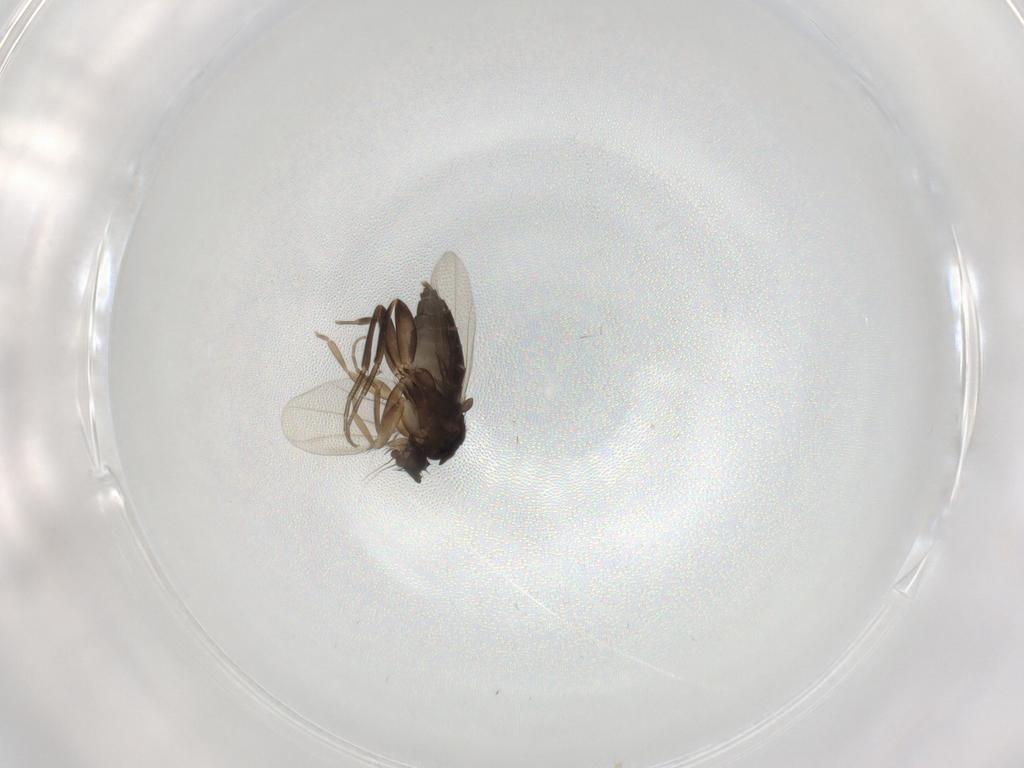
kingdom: Animalia
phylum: Arthropoda
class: Insecta
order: Diptera
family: Phoridae
